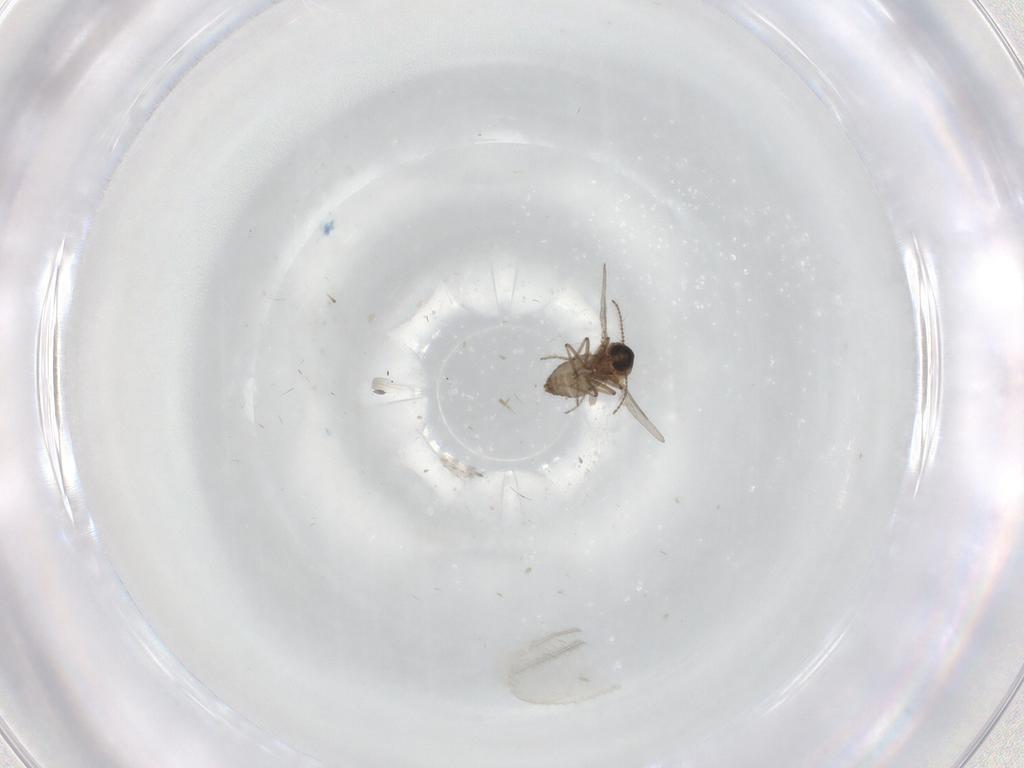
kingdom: Animalia
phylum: Arthropoda
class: Insecta
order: Diptera
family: Ceratopogonidae
